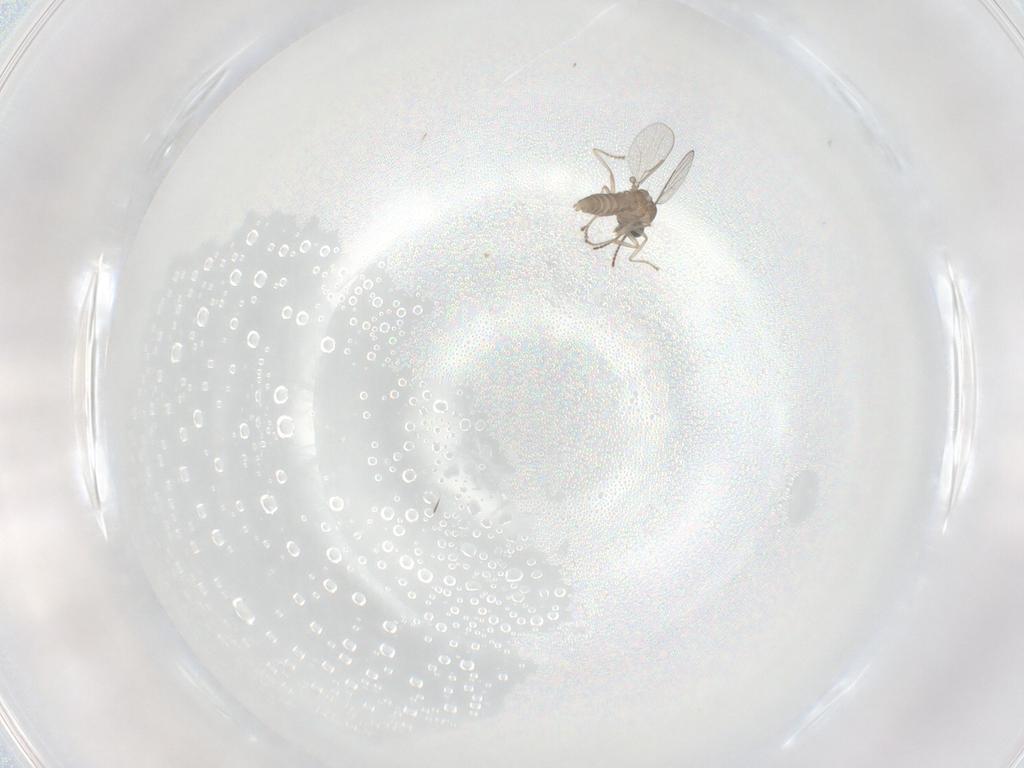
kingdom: Animalia
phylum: Arthropoda
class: Insecta
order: Diptera
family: Ceratopogonidae
